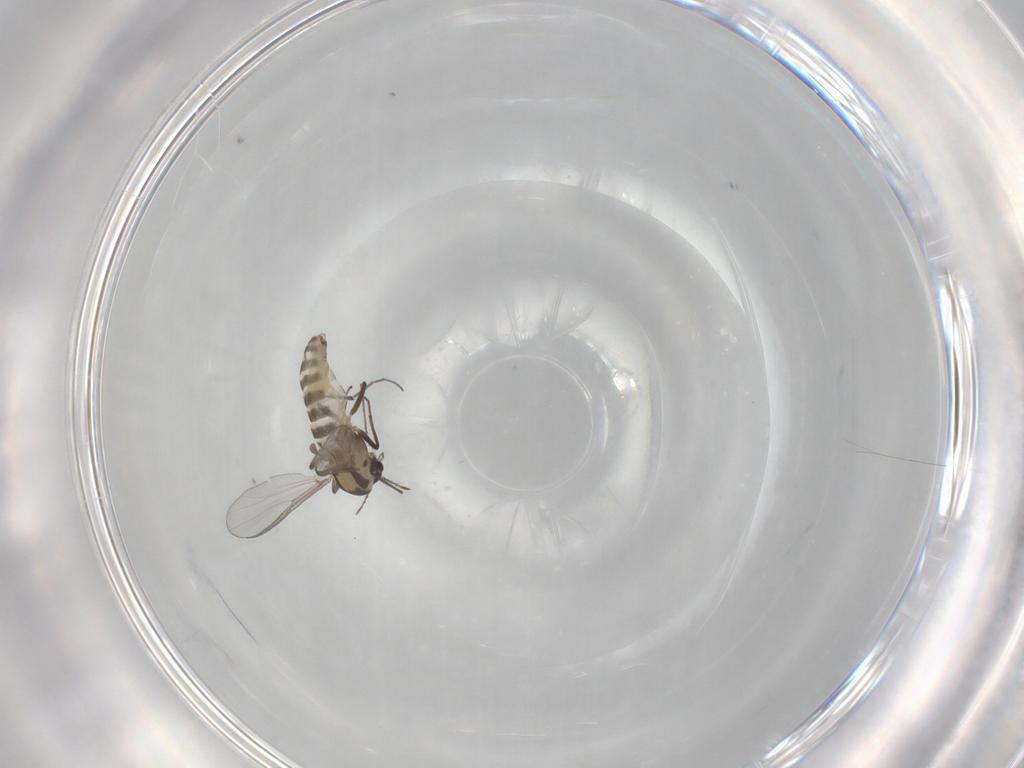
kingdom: Animalia
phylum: Arthropoda
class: Insecta
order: Diptera
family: Chironomidae
